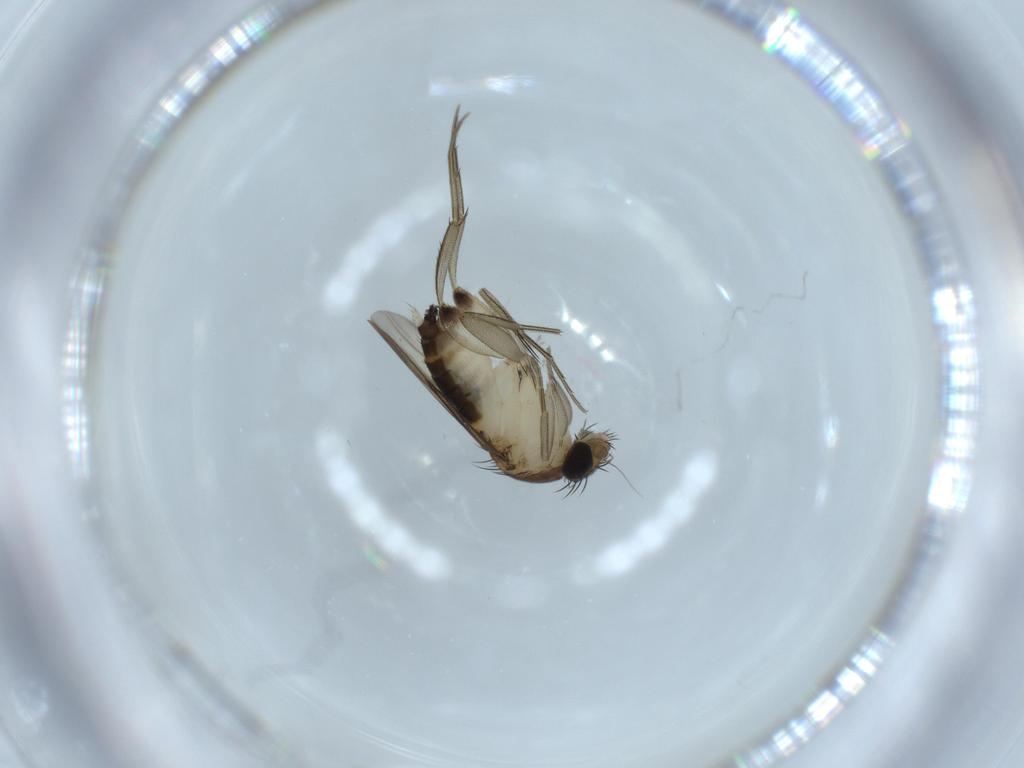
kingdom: Animalia
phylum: Arthropoda
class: Insecta
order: Diptera
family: Phoridae
